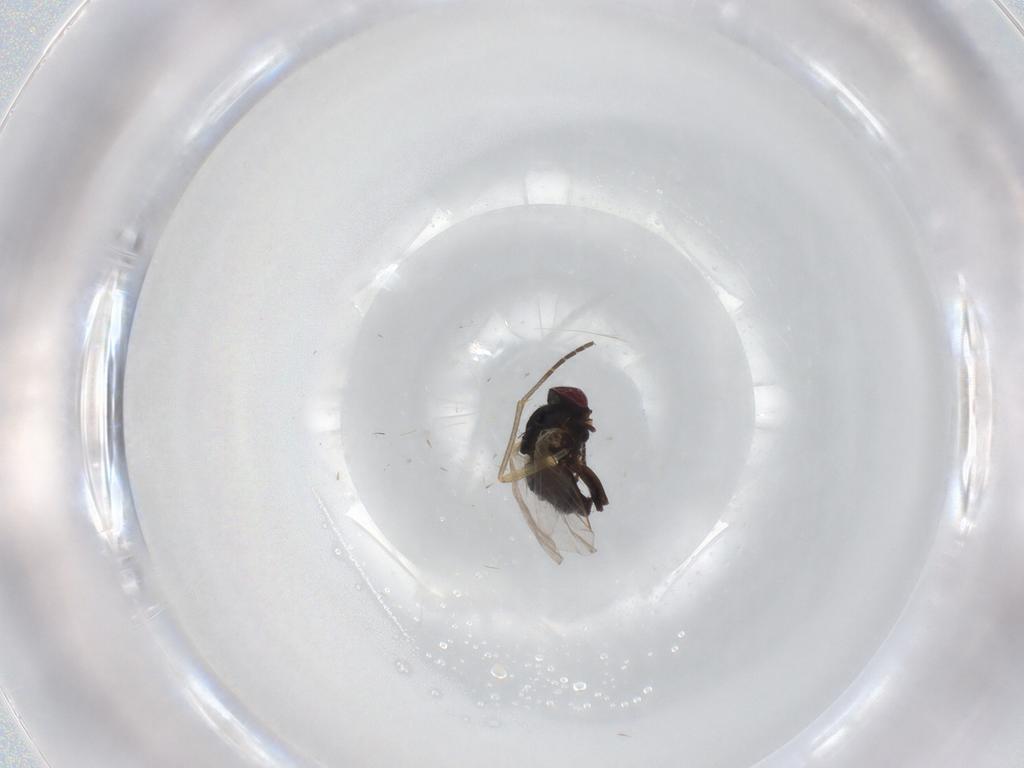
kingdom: Animalia
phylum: Arthropoda
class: Insecta
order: Diptera
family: Sciaridae
